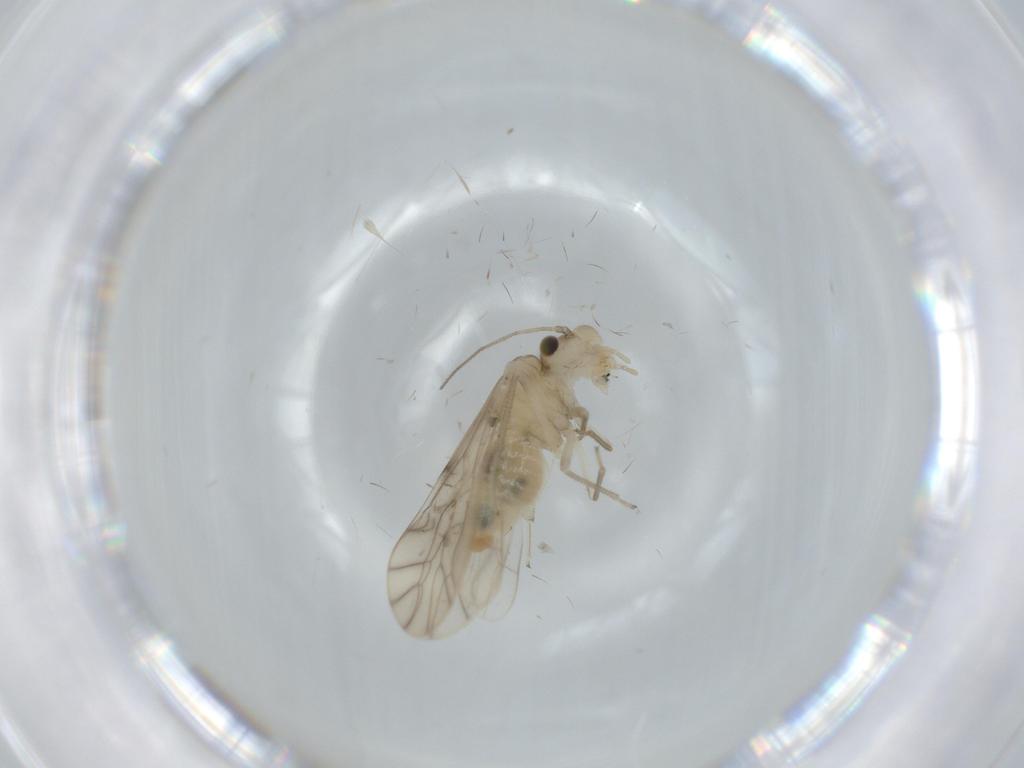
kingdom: Animalia
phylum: Arthropoda
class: Insecta
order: Psocodea
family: Caeciliusidae
